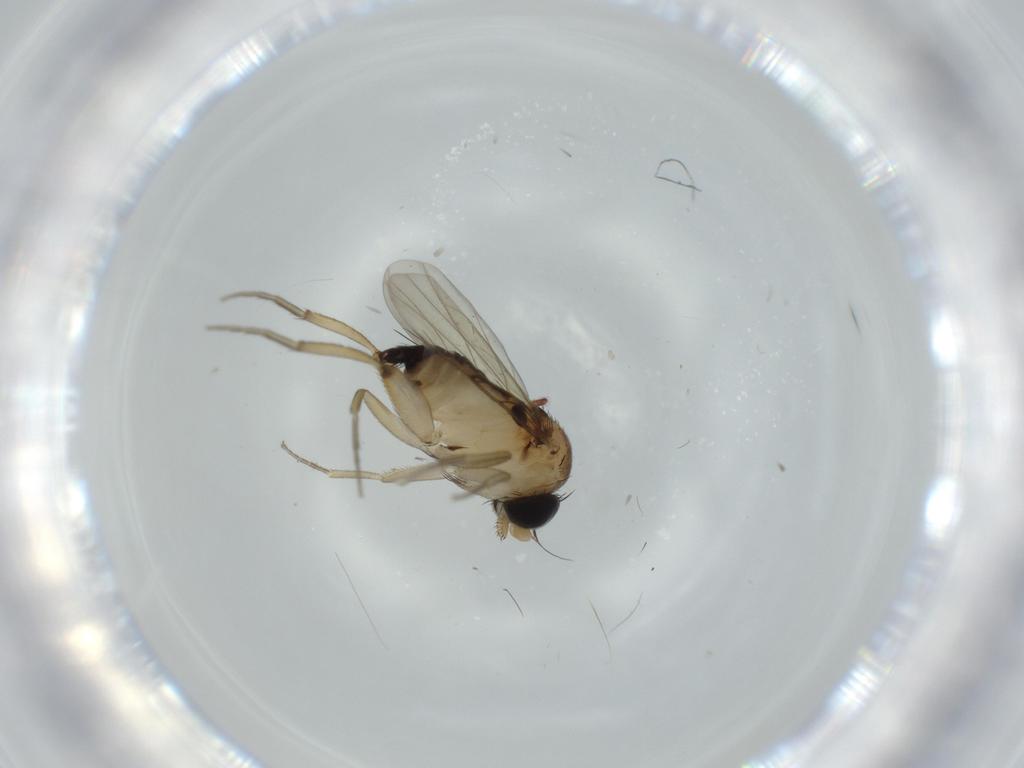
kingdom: Animalia
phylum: Arthropoda
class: Insecta
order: Diptera
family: Phoridae
